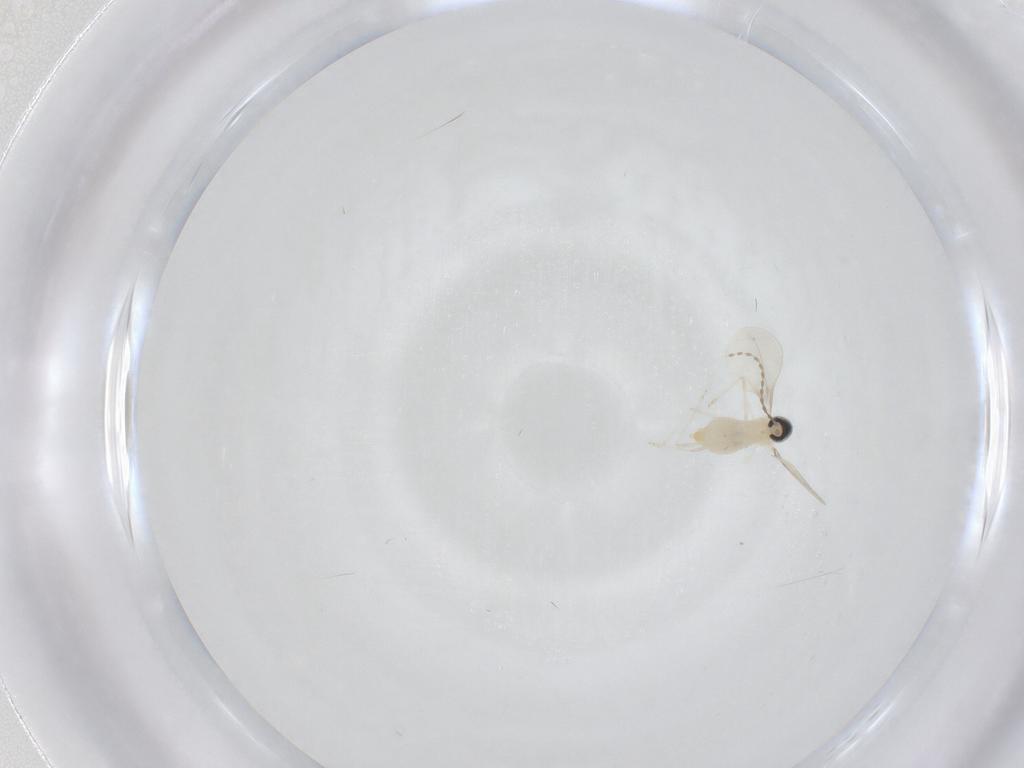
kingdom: Animalia
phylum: Arthropoda
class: Insecta
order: Diptera
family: Cecidomyiidae
